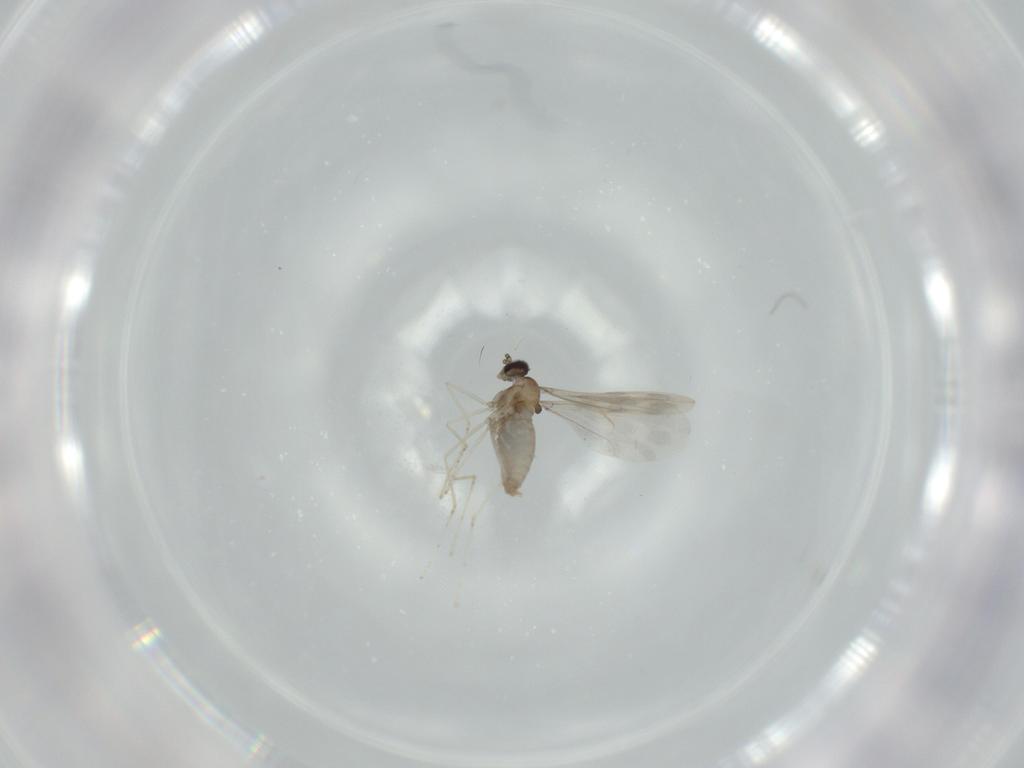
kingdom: Animalia
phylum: Arthropoda
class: Insecta
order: Diptera
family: Cecidomyiidae
